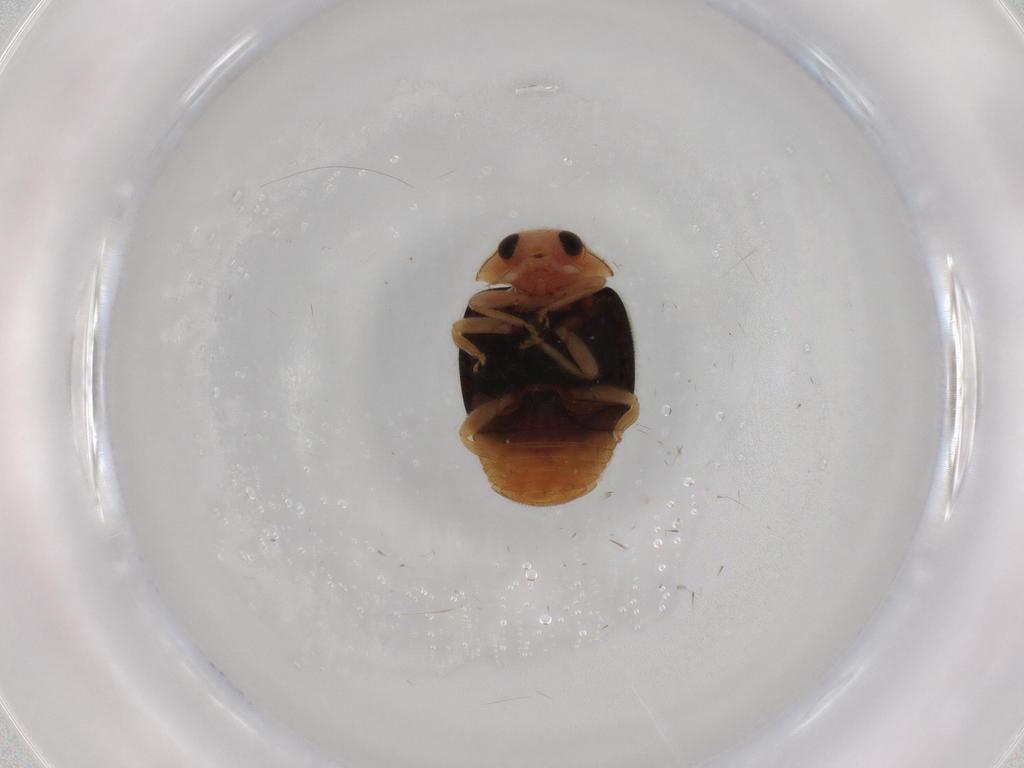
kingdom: Animalia
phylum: Arthropoda
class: Insecta
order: Coleoptera
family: Coccinellidae
